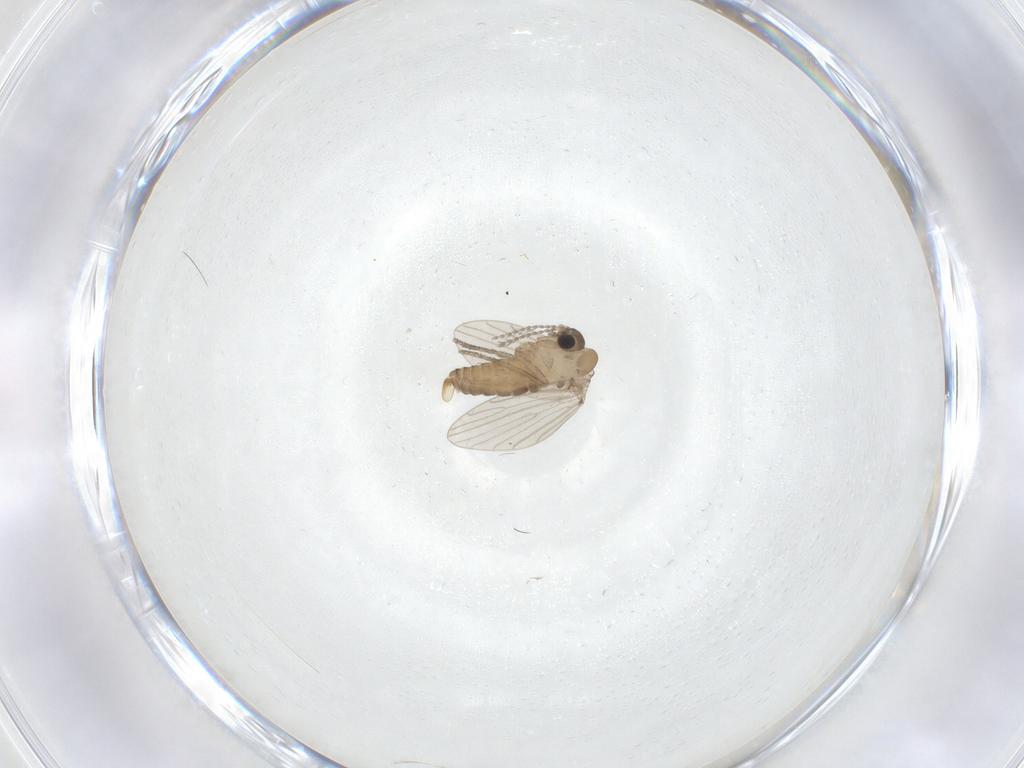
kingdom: Animalia
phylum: Arthropoda
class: Insecta
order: Diptera
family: Psychodidae
